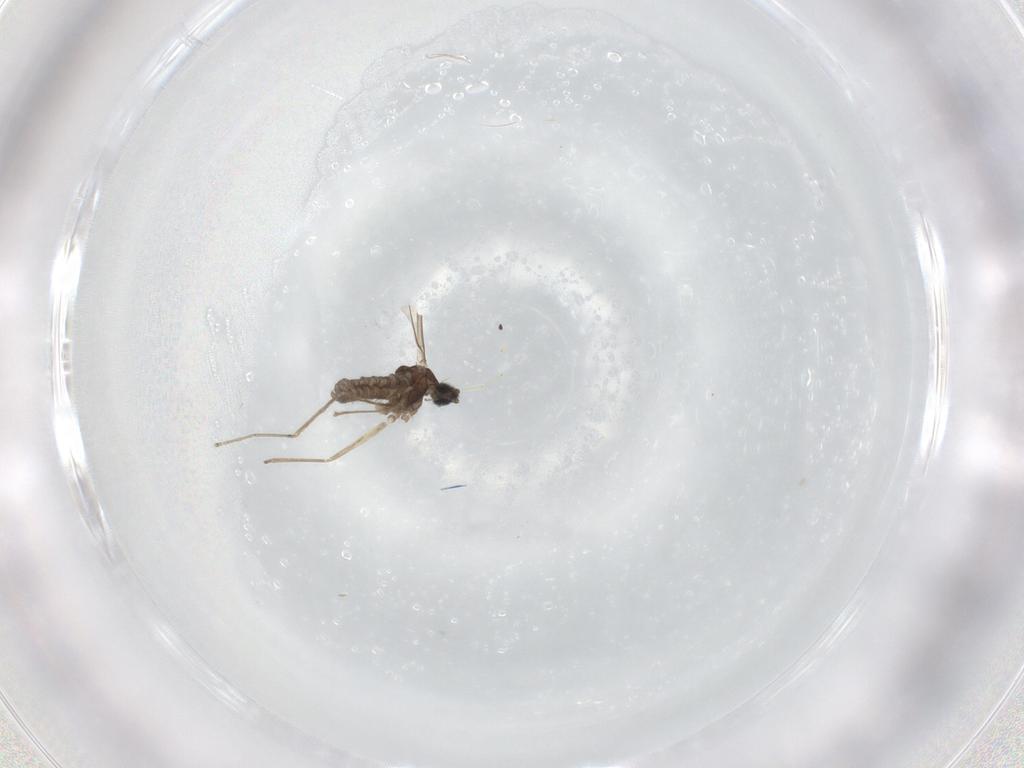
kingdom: Animalia
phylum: Arthropoda
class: Insecta
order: Diptera
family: Cecidomyiidae
